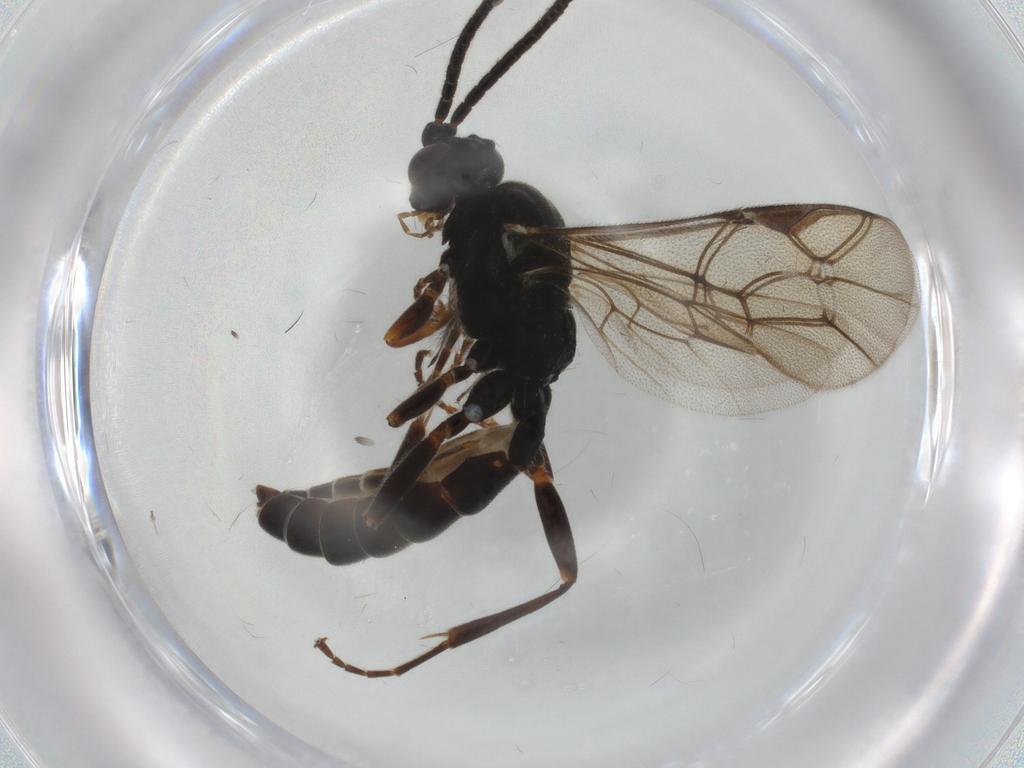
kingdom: Animalia
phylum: Arthropoda
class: Insecta
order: Hymenoptera
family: Ichneumonidae
